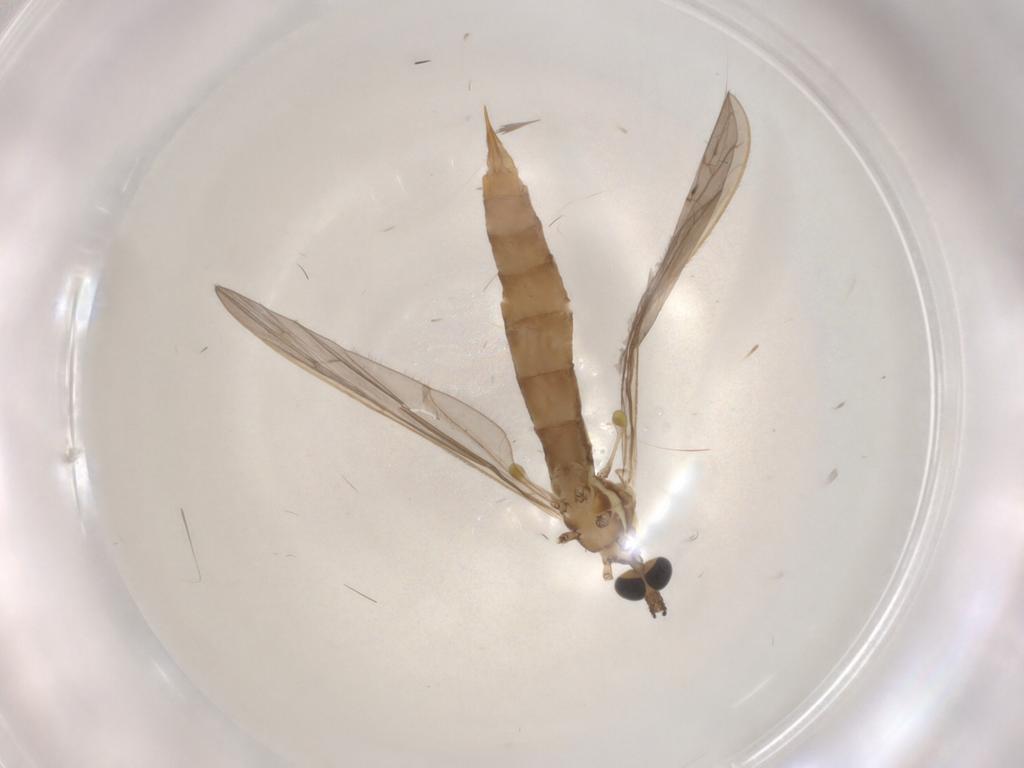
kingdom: Animalia
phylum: Arthropoda
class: Insecta
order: Diptera
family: Limoniidae
